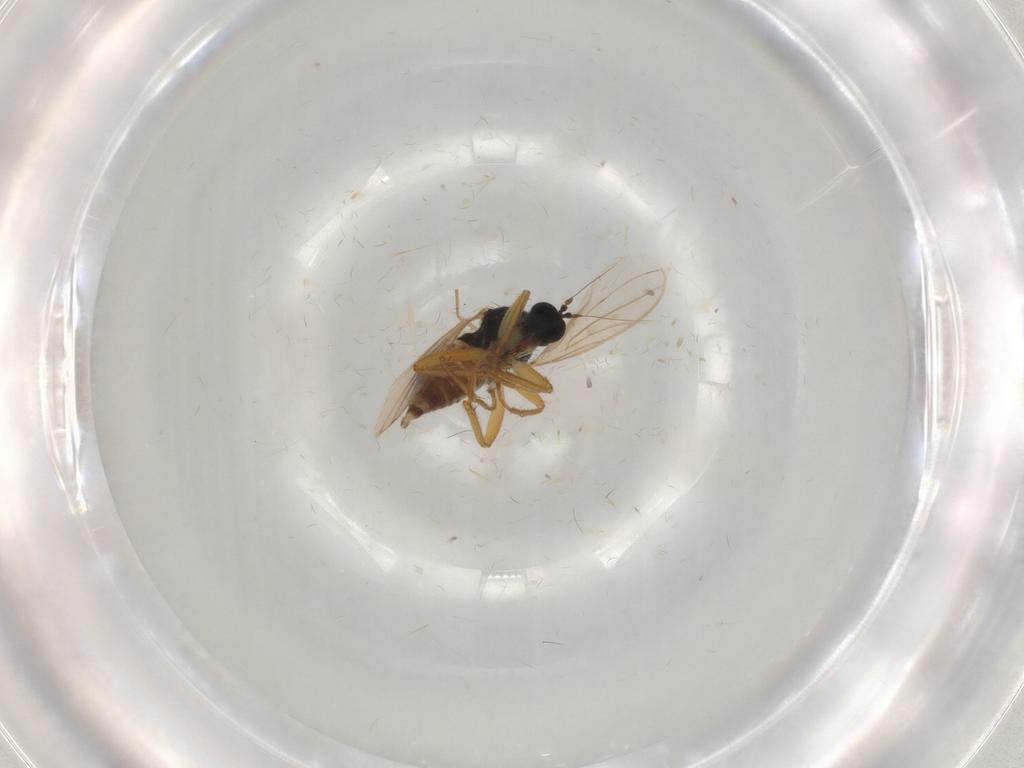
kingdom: Animalia
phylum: Arthropoda
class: Insecta
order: Diptera
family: Hybotidae
